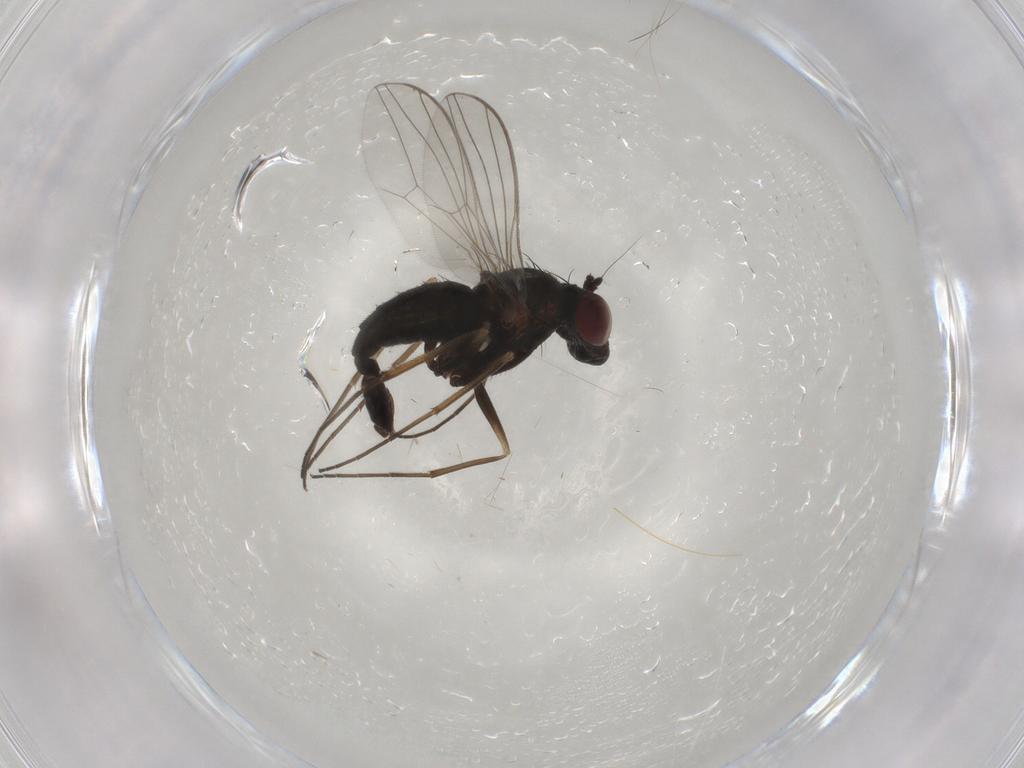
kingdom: Animalia
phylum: Arthropoda
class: Insecta
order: Diptera
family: Dolichopodidae
